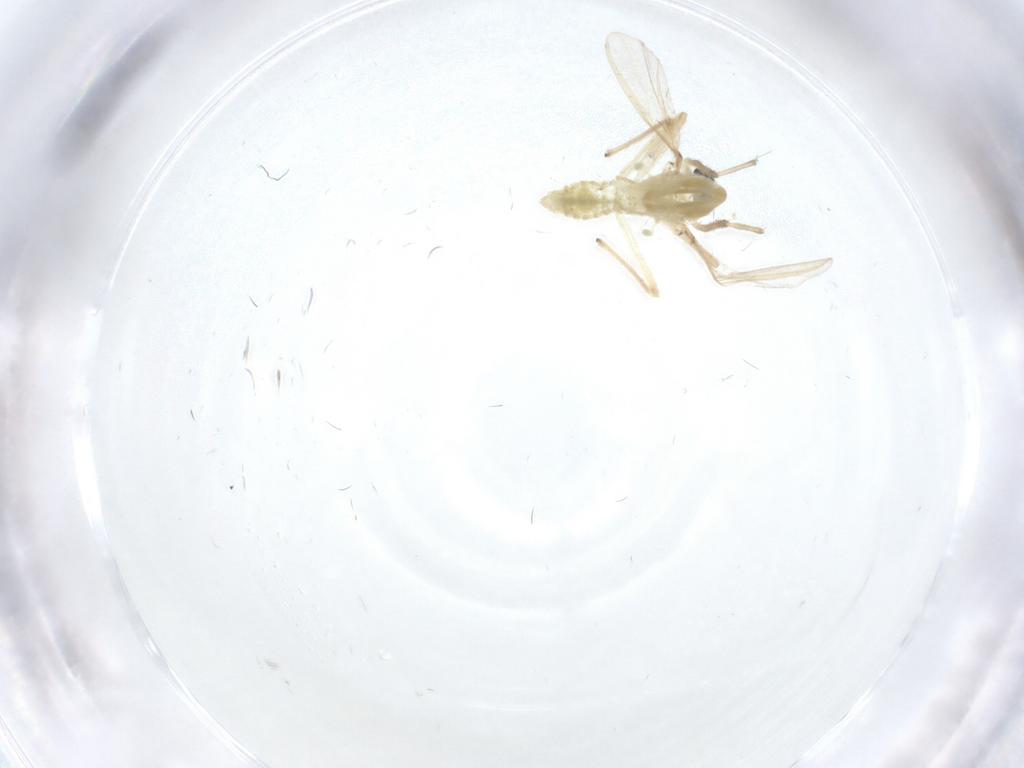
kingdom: Animalia
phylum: Arthropoda
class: Insecta
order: Diptera
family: Chironomidae
